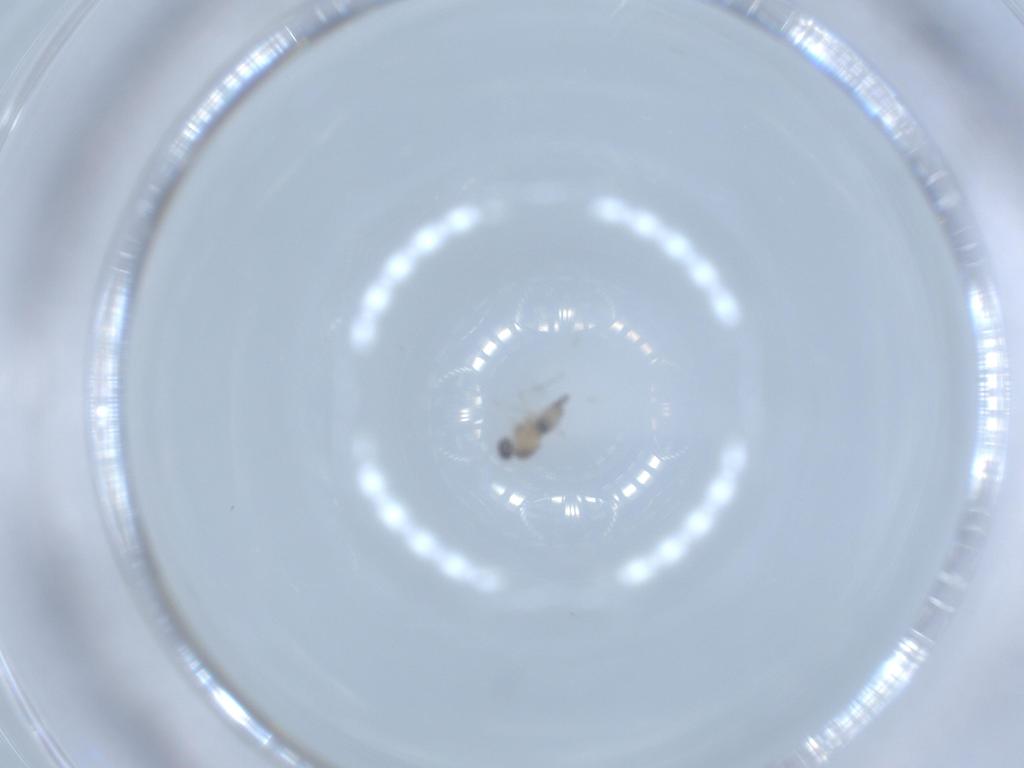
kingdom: Animalia
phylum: Arthropoda
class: Insecta
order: Diptera
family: Cecidomyiidae
